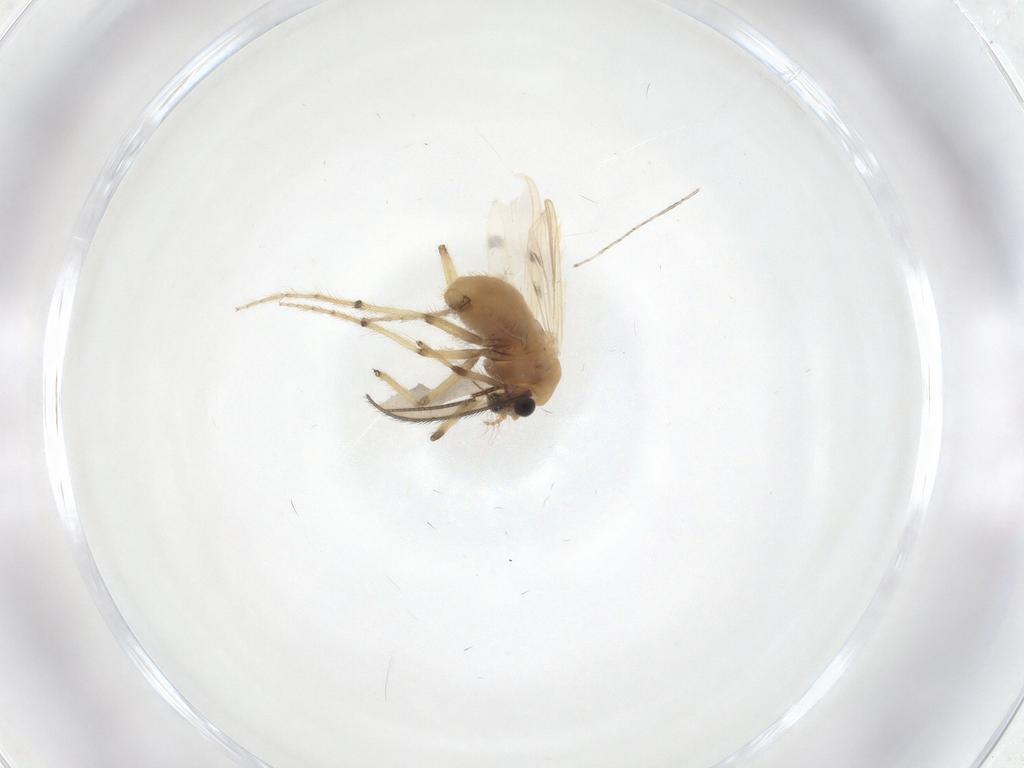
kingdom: Animalia
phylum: Arthropoda
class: Insecta
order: Diptera
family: Chironomidae
